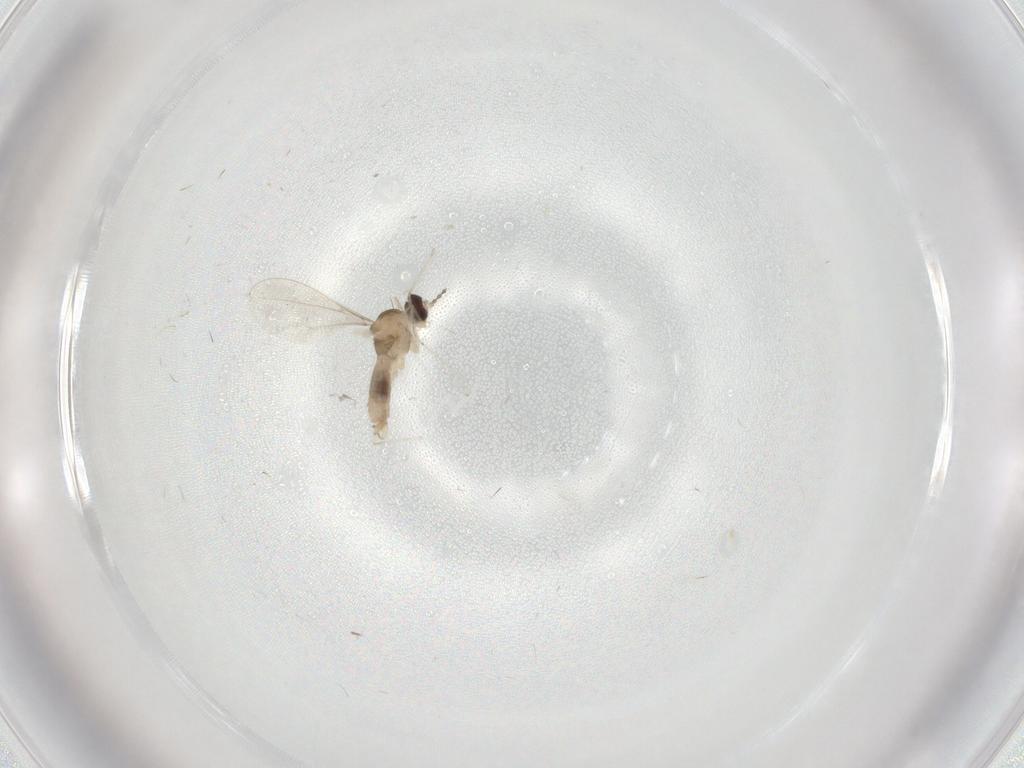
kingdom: Animalia
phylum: Arthropoda
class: Insecta
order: Diptera
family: Cecidomyiidae
